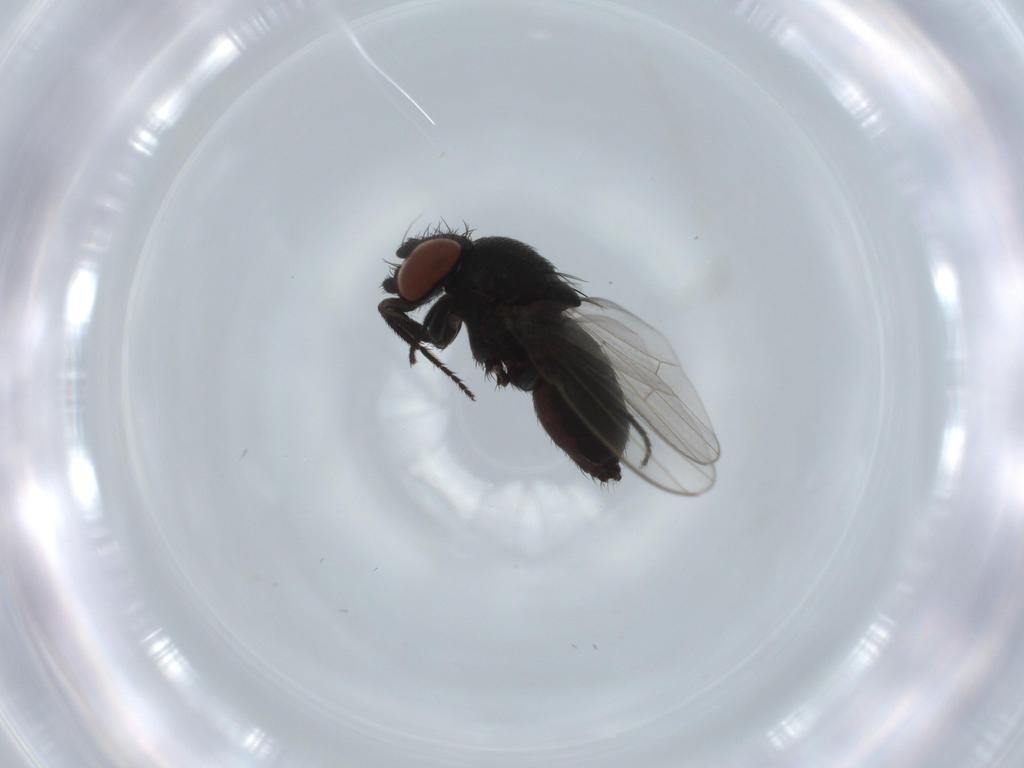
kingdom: Animalia
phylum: Arthropoda
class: Insecta
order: Diptera
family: Milichiidae
